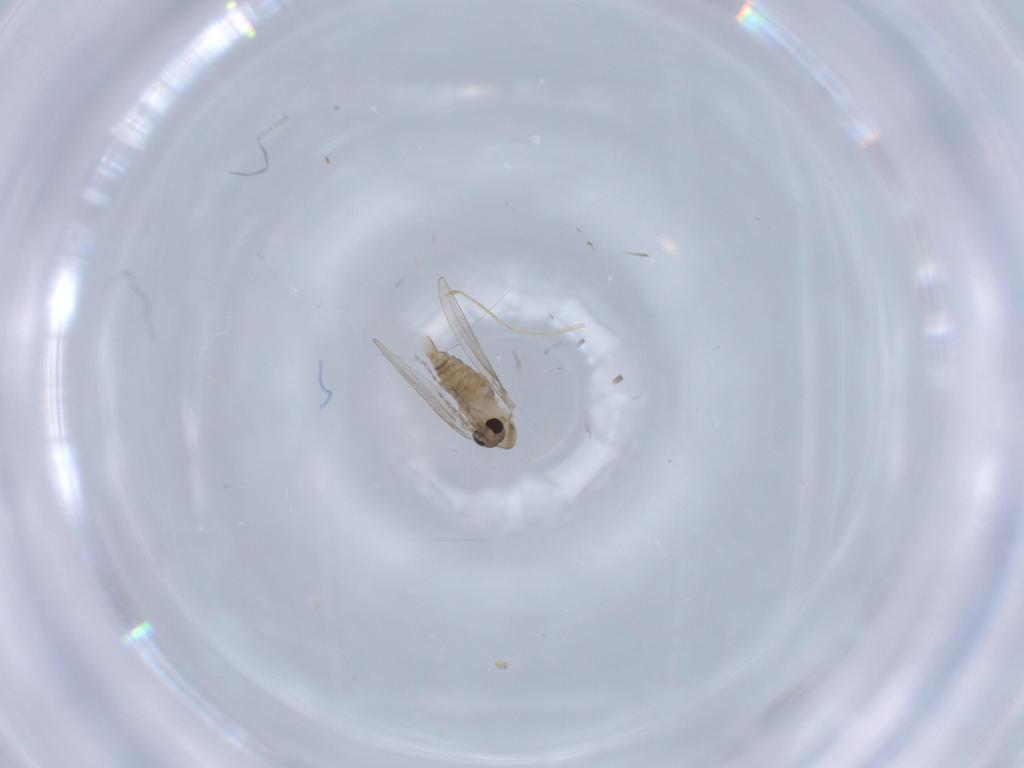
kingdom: Animalia
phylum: Arthropoda
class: Insecta
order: Diptera
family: Psychodidae
